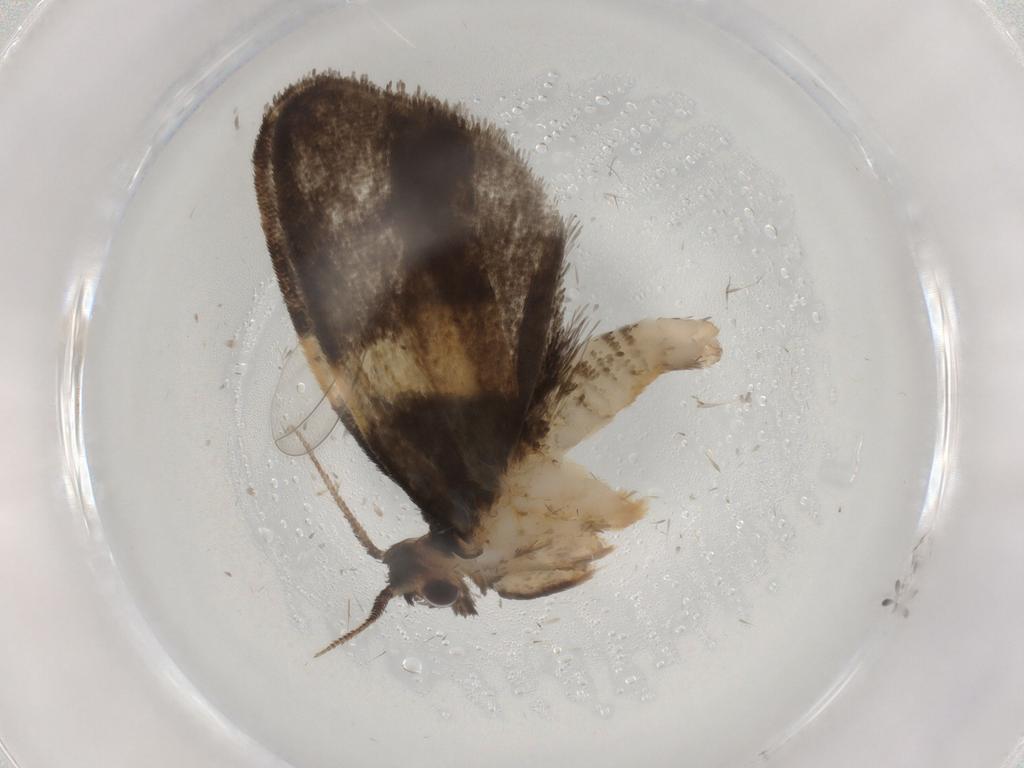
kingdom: Animalia
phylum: Arthropoda
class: Insecta
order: Lepidoptera
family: Psychidae
